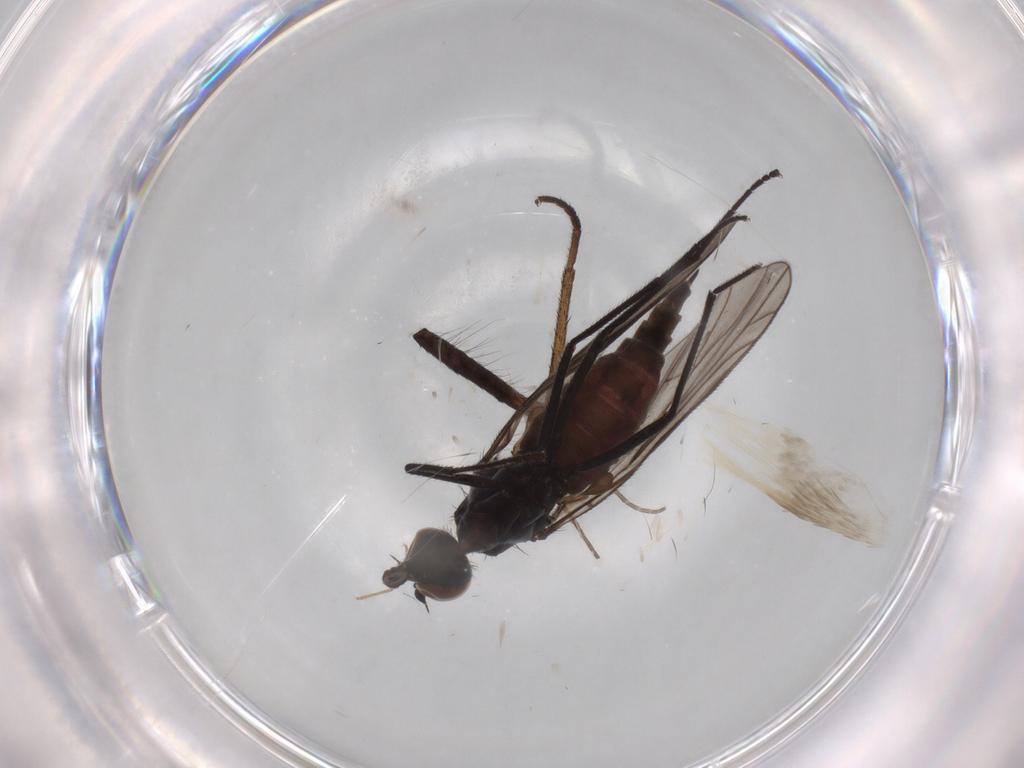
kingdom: Animalia
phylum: Arthropoda
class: Insecta
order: Diptera
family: Empididae
